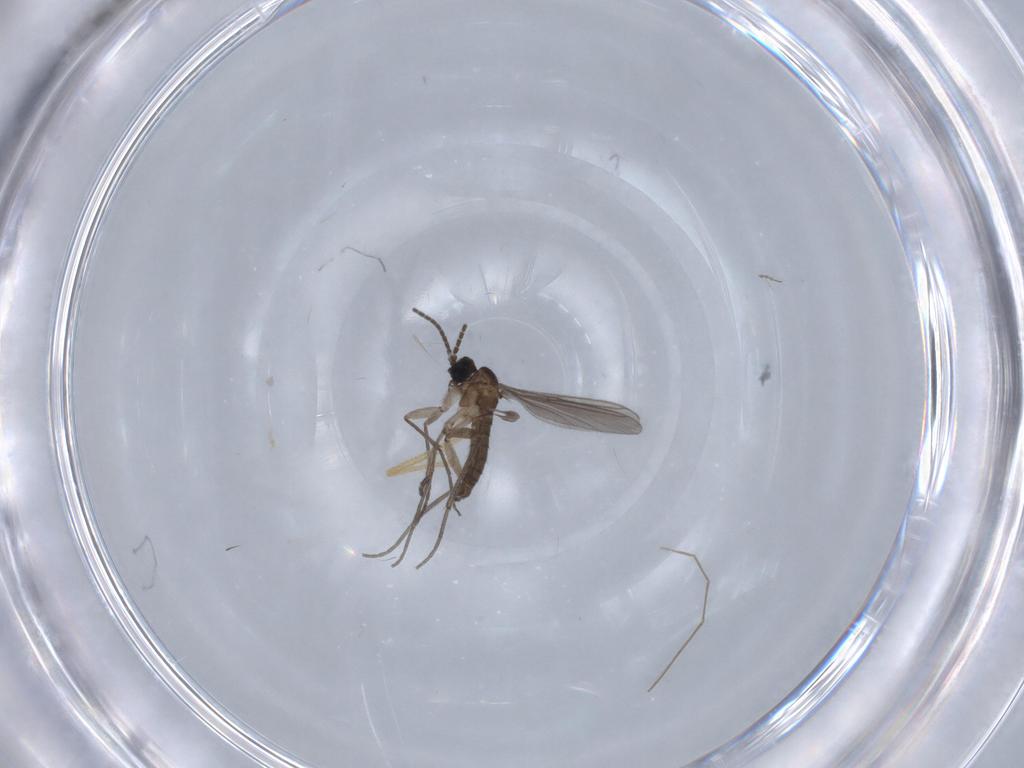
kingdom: Animalia
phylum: Arthropoda
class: Insecta
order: Diptera
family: Sciaridae
